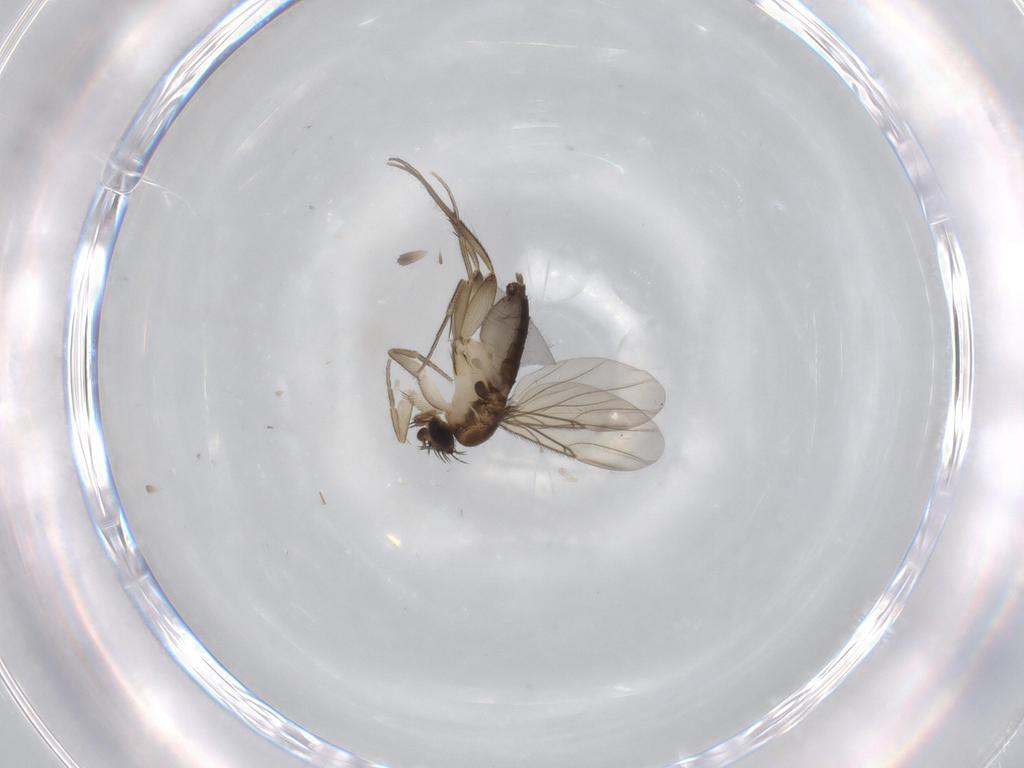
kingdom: Animalia
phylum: Arthropoda
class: Insecta
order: Diptera
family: Phoridae
